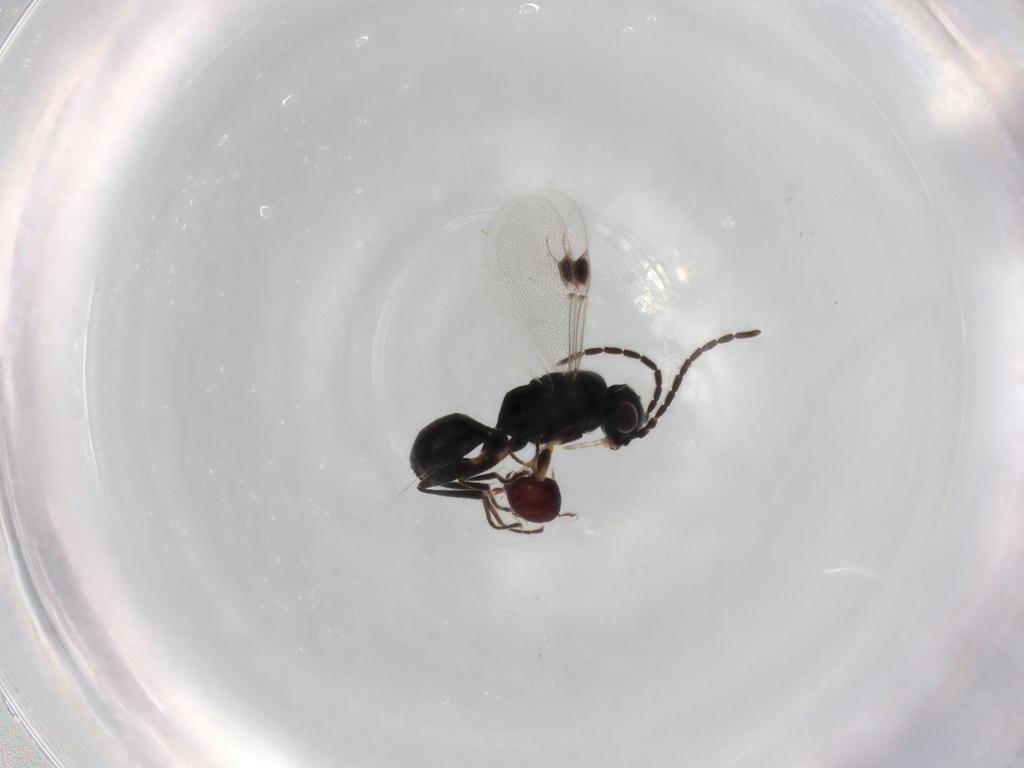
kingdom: Animalia
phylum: Arthropoda
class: Insecta
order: Hymenoptera
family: Dryinidae
